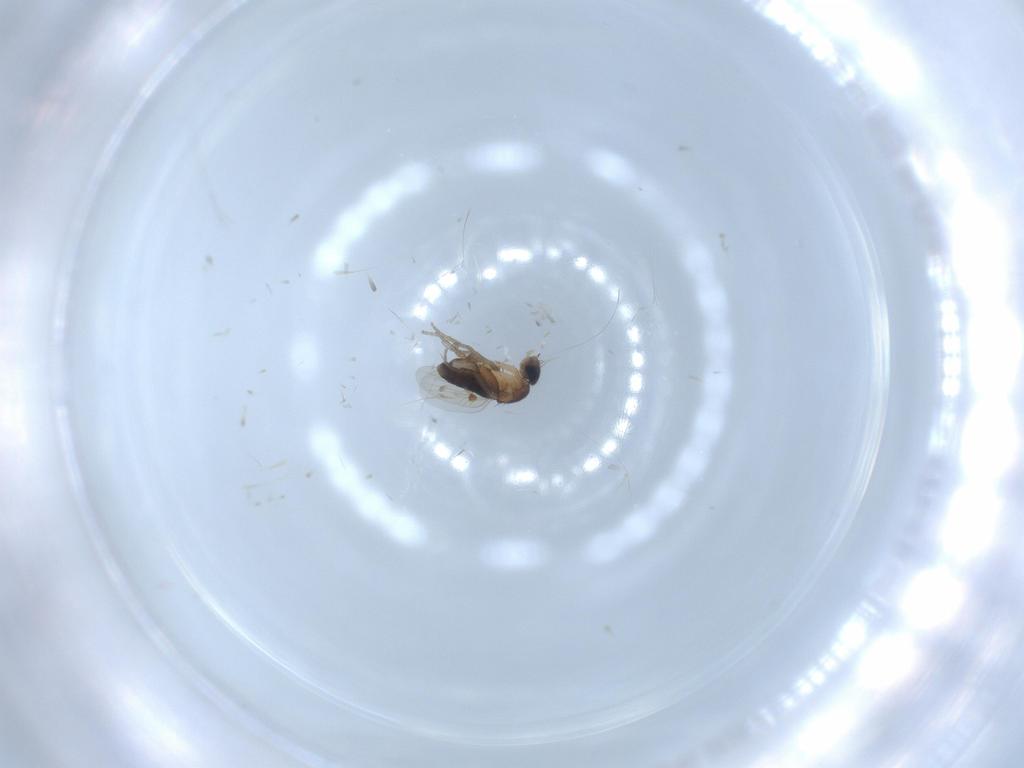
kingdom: Animalia
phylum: Arthropoda
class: Insecta
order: Diptera
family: Phoridae
